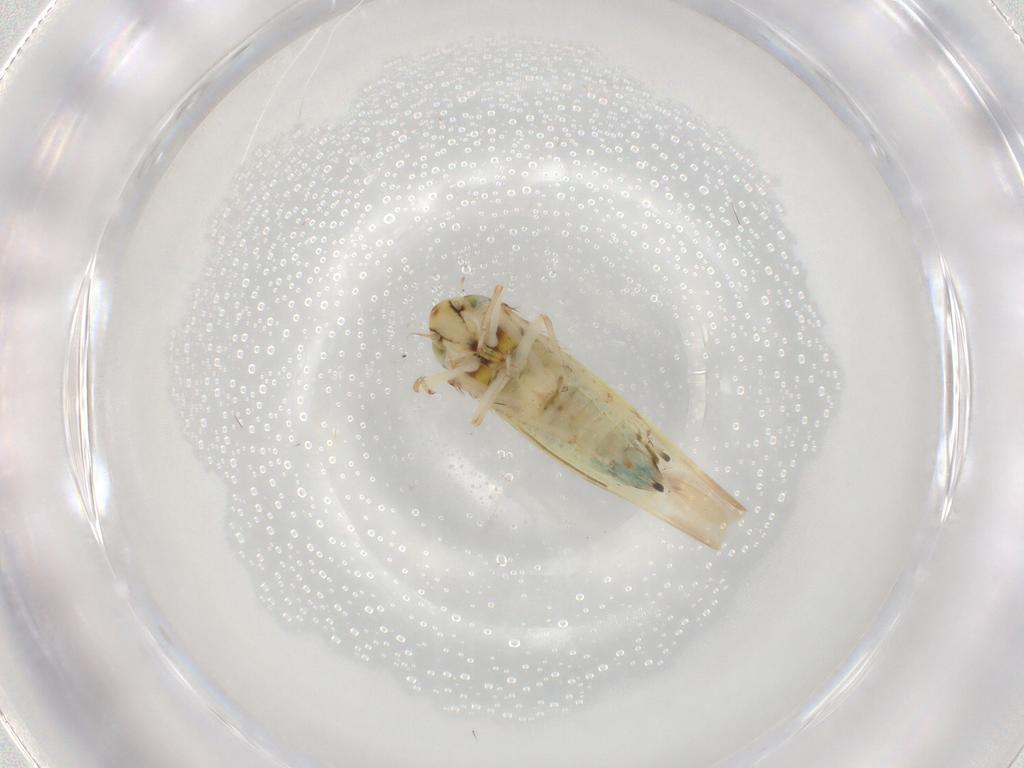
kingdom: Animalia
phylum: Arthropoda
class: Insecta
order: Hemiptera
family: Cicadellidae
